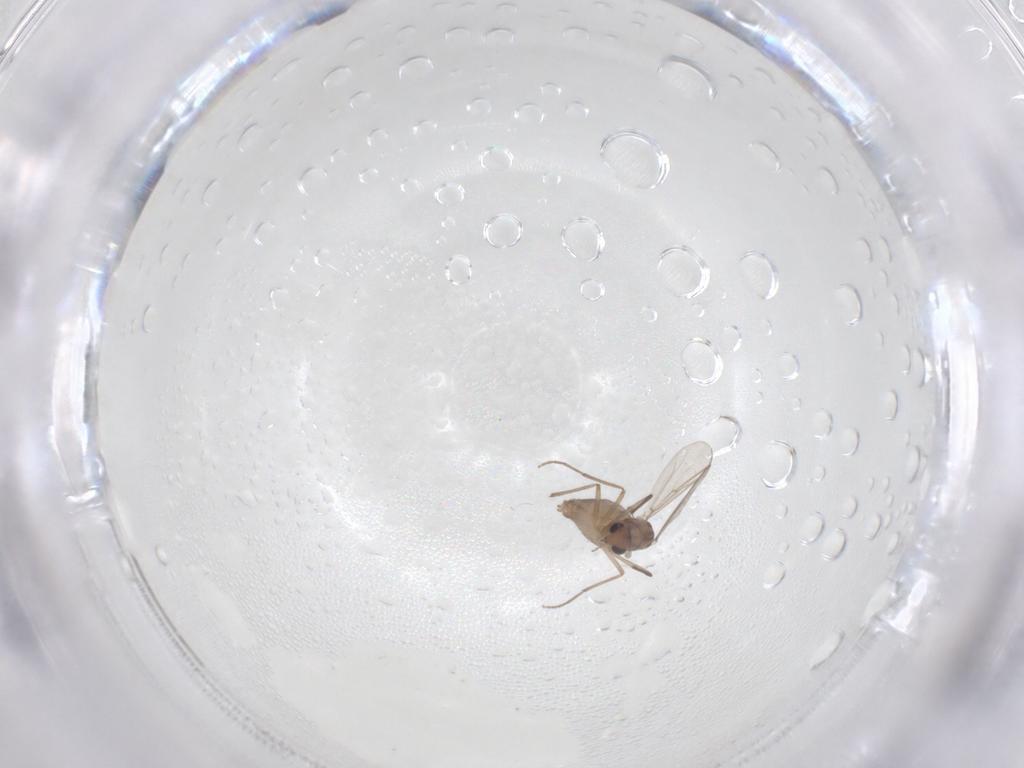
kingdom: Animalia
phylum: Arthropoda
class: Insecta
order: Diptera
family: Chironomidae
